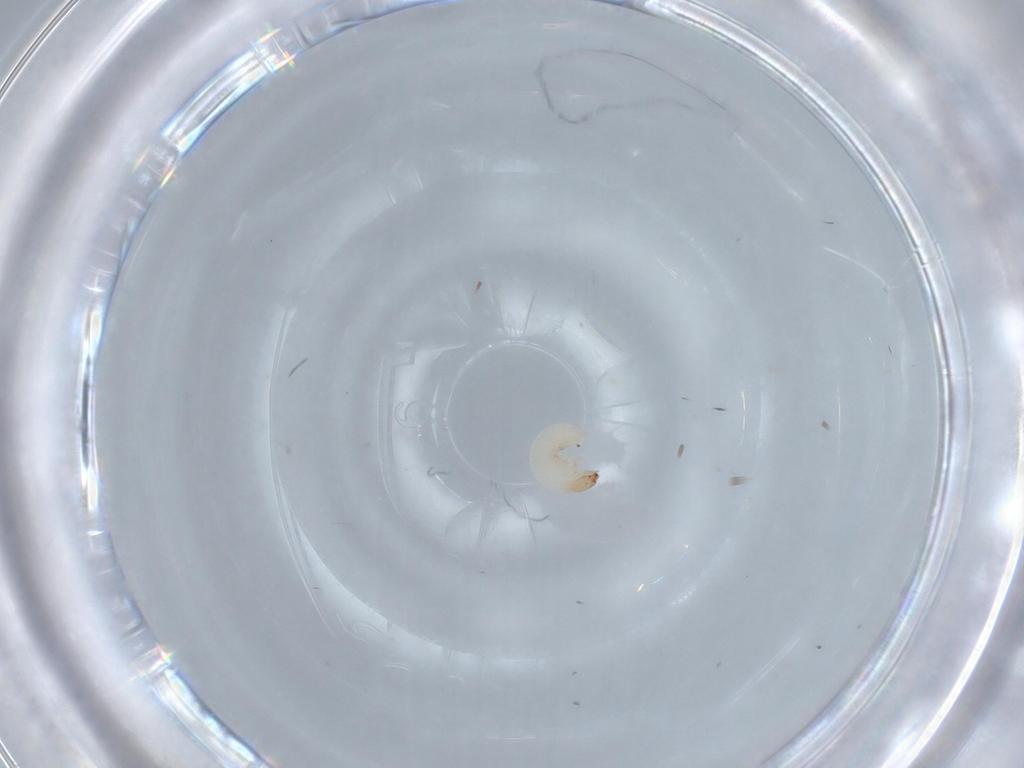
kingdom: Animalia
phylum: Arthropoda
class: Insecta
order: Coleoptera
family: Chrysomelidae
